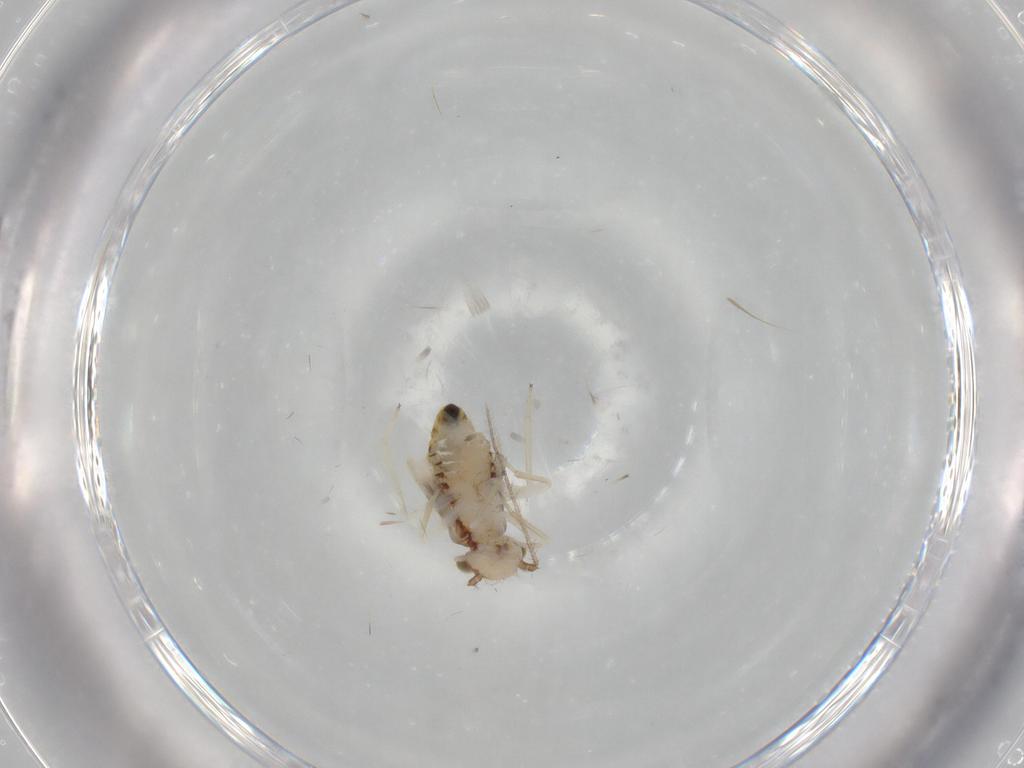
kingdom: Animalia
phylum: Arthropoda
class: Insecta
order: Psocodea
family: Caeciliusidae
